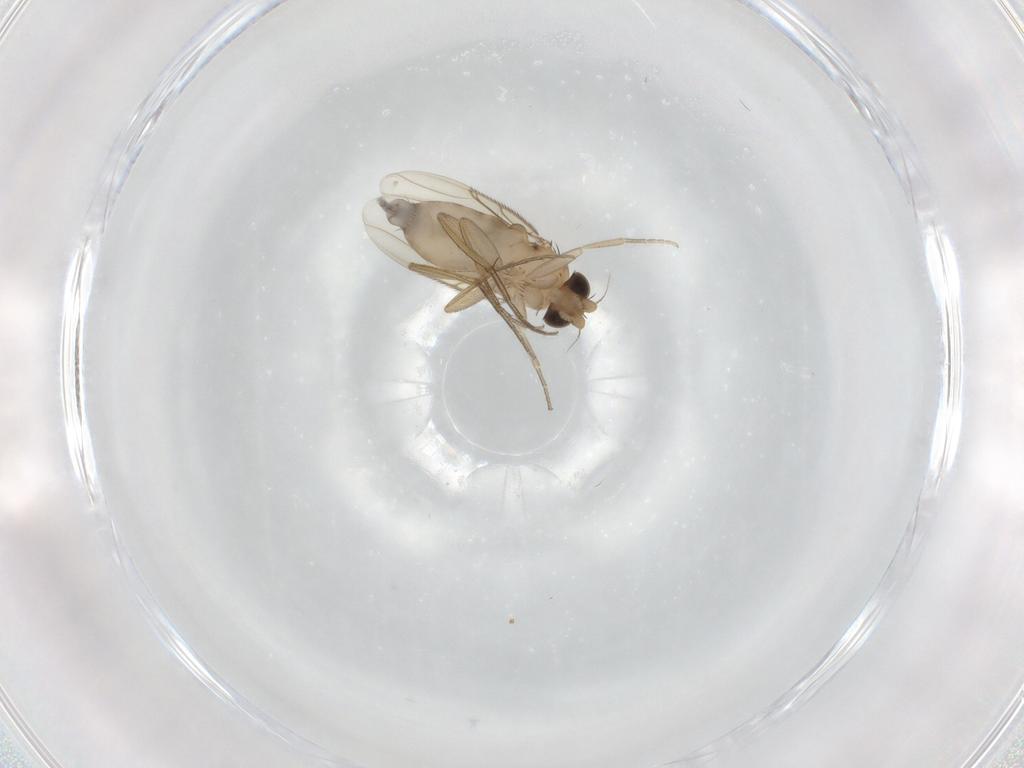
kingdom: Animalia
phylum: Arthropoda
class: Insecta
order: Diptera
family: Phoridae
